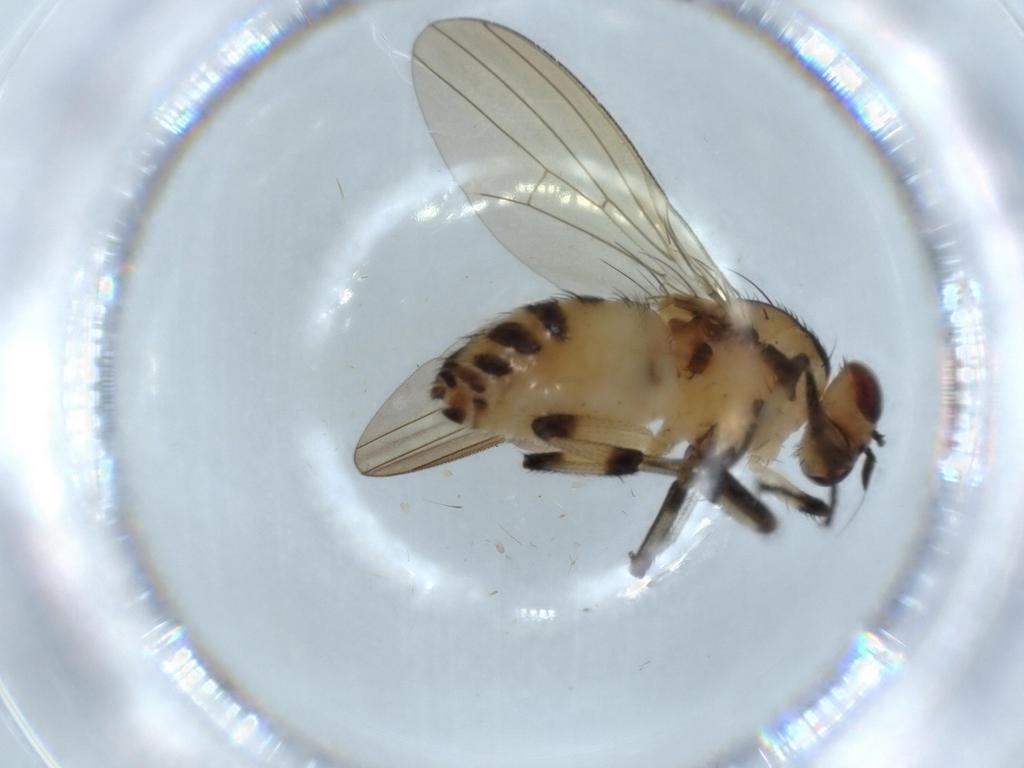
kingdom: Animalia
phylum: Arthropoda
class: Insecta
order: Diptera
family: Lauxaniidae
